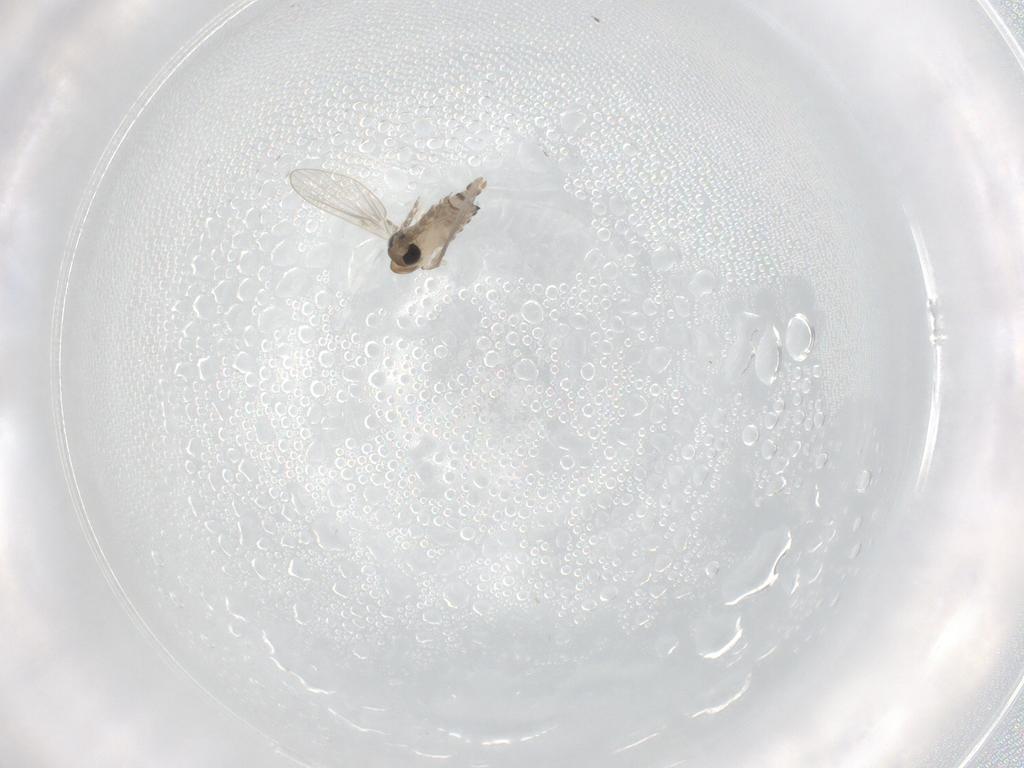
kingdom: Animalia
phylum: Arthropoda
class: Insecta
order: Diptera
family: Psychodidae
